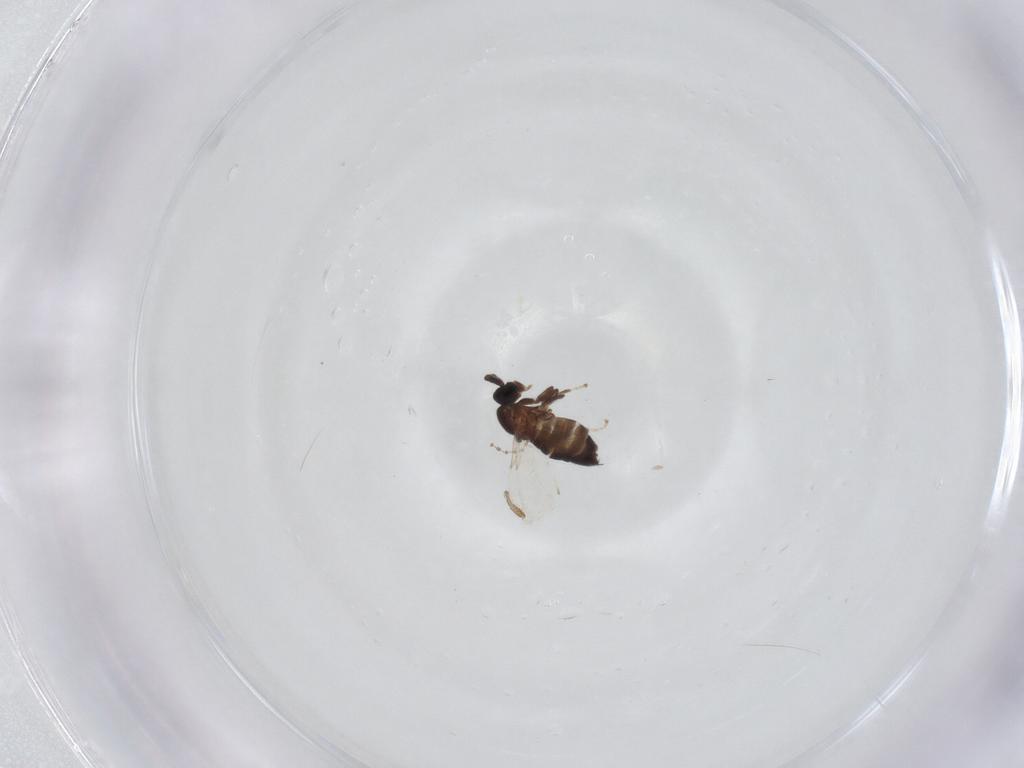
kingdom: Animalia
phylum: Arthropoda
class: Insecta
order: Diptera
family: Scatopsidae
